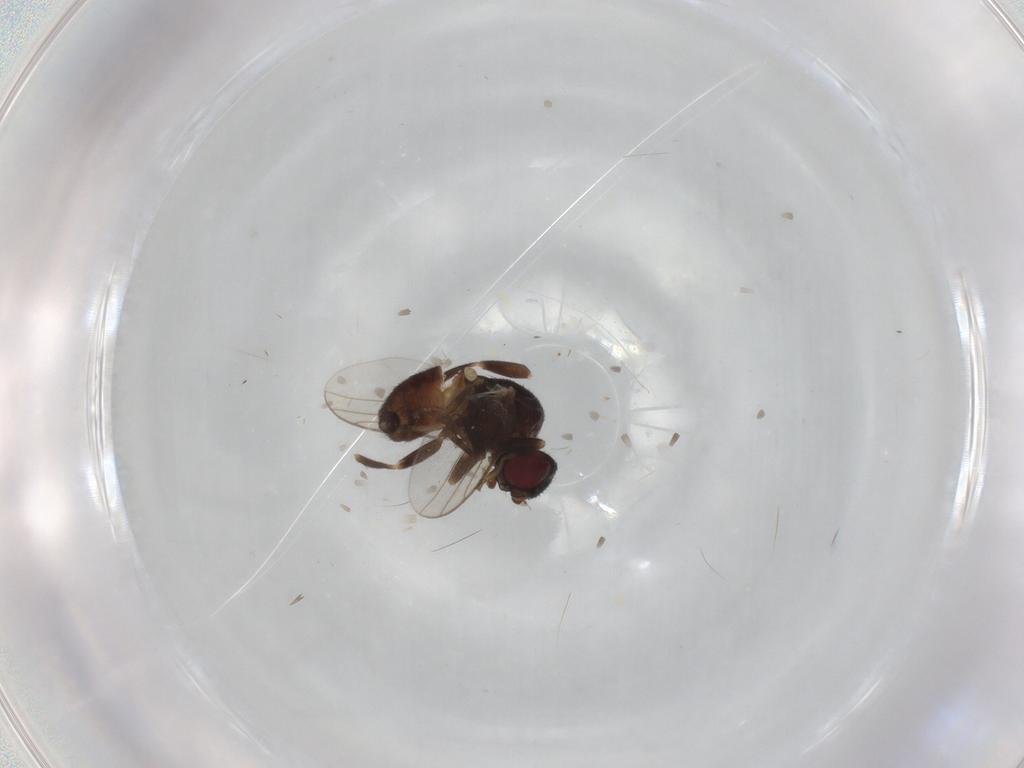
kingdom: Animalia
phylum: Arthropoda
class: Insecta
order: Diptera
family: Chloropidae
